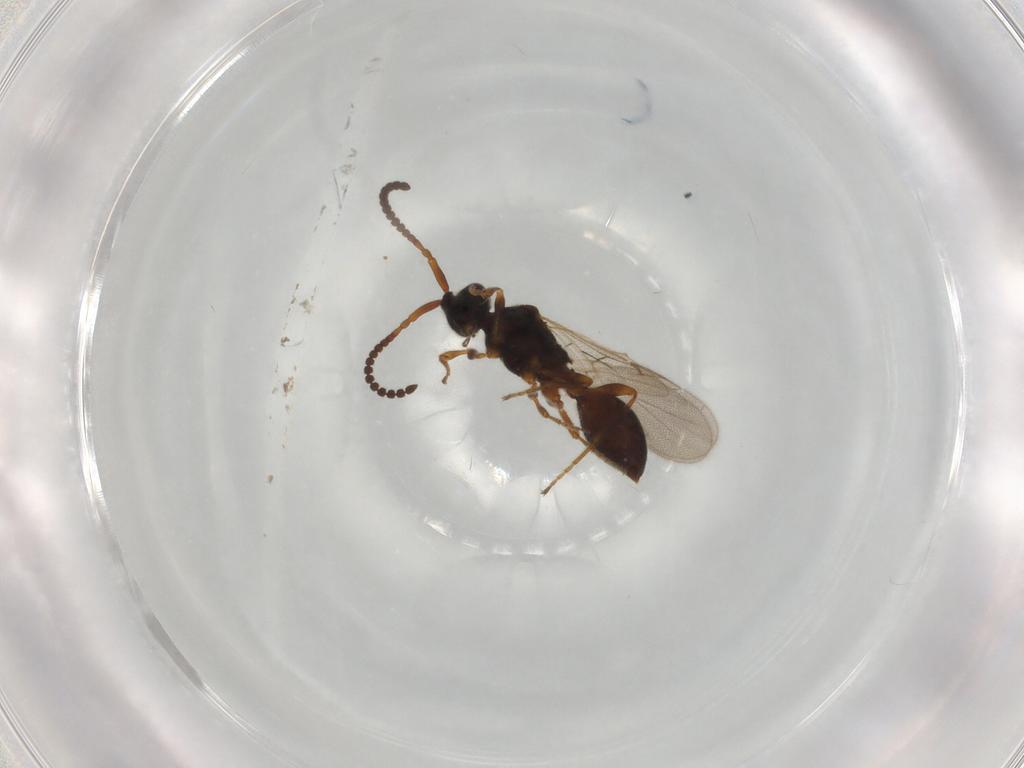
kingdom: Animalia
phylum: Arthropoda
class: Insecta
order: Hymenoptera
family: Diapriidae
